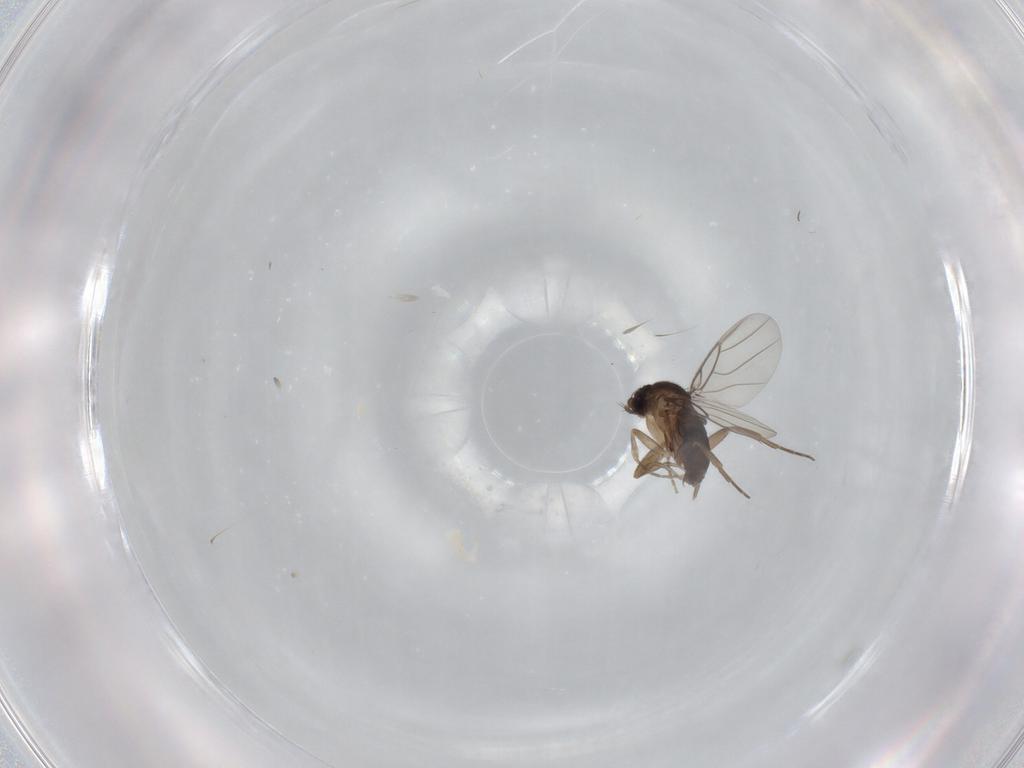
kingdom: Animalia
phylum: Arthropoda
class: Insecta
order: Diptera
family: Phoridae
